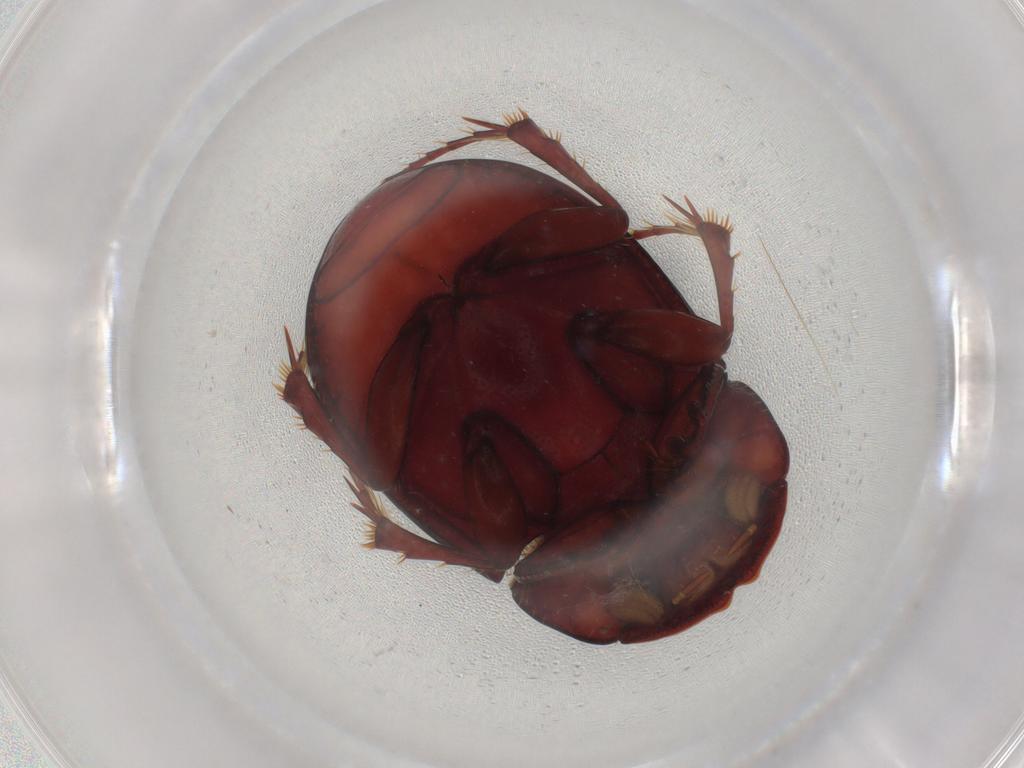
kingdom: Animalia
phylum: Arthropoda
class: Insecta
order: Coleoptera
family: Scarabaeidae
